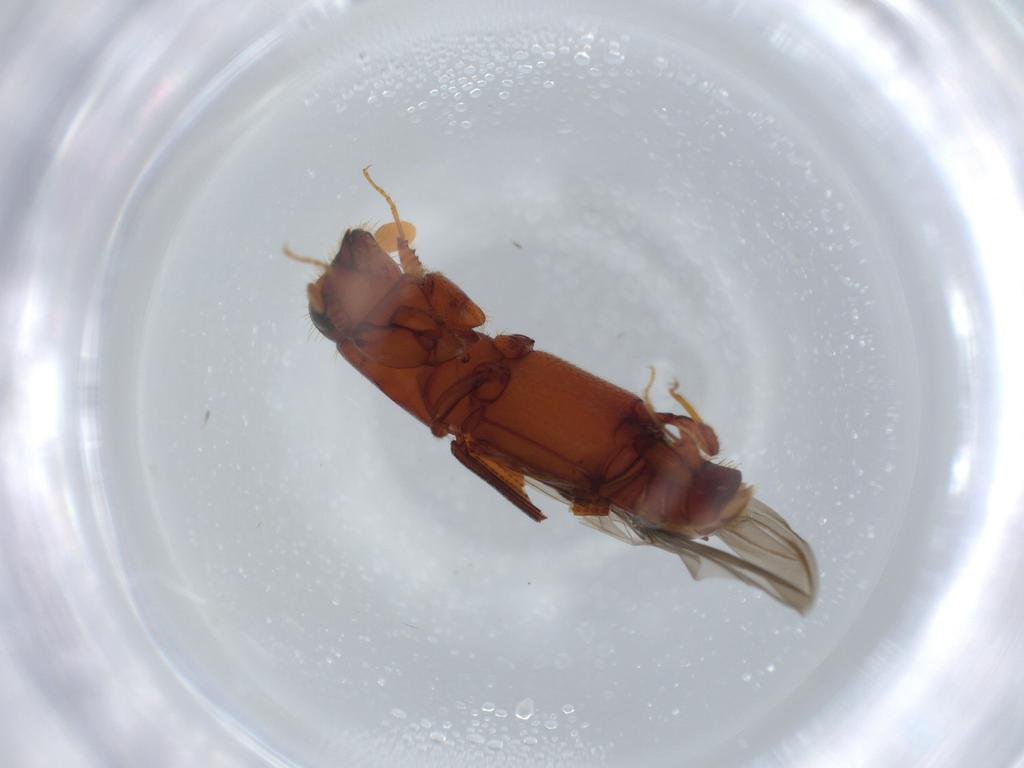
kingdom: Animalia
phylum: Arthropoda
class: Insecta
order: Coleoptera
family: Curculionidae
